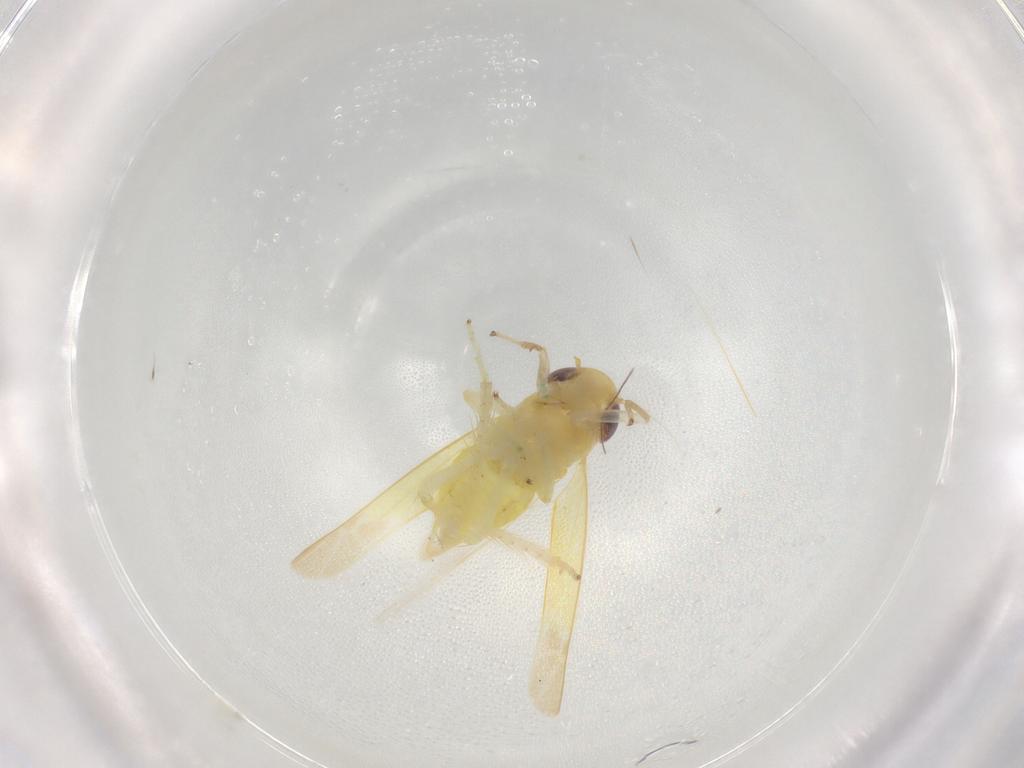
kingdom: Animalia
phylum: Arthropoda
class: Insecta
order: Hemiptera
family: Cicadellidae
